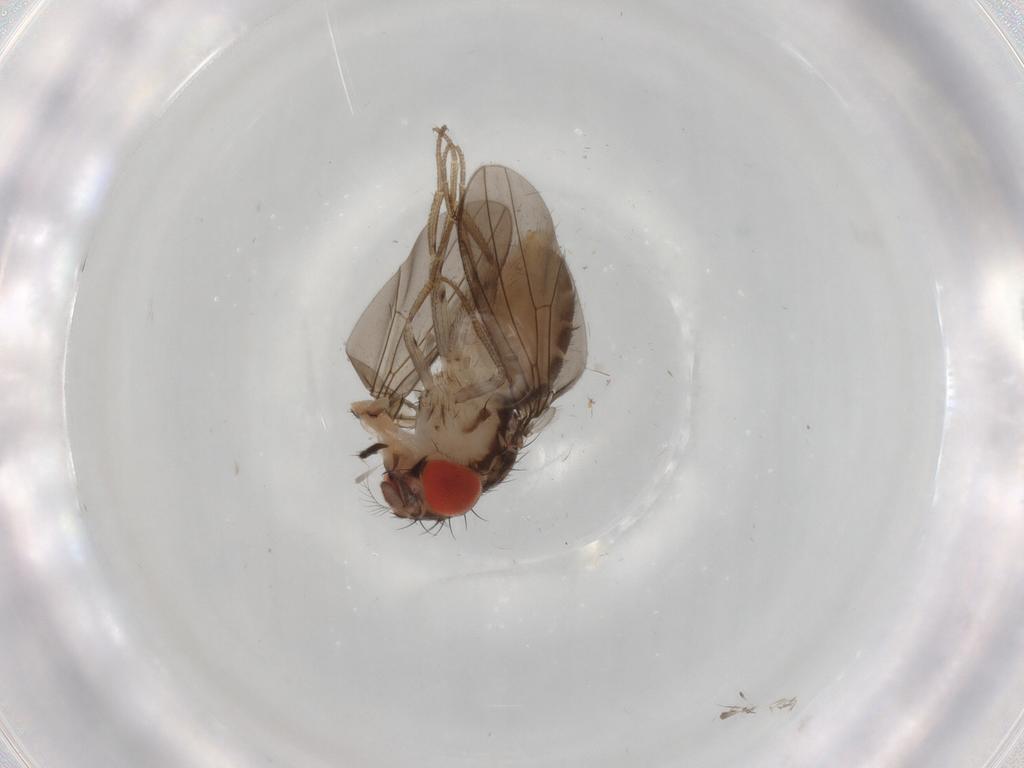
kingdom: Animalia
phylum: Arthropoda
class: Insecta
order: Diptera
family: Drosophilidae
